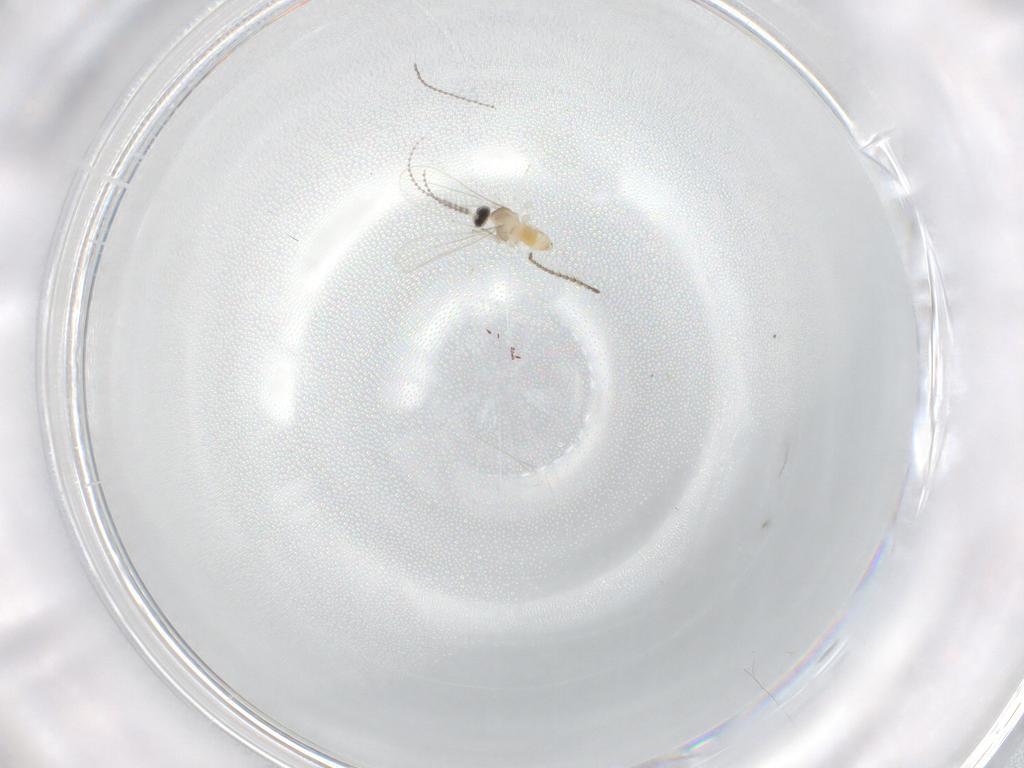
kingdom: Animalia
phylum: Arthropoda
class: Insecta
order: Diptera
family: Cecidomyiidae
